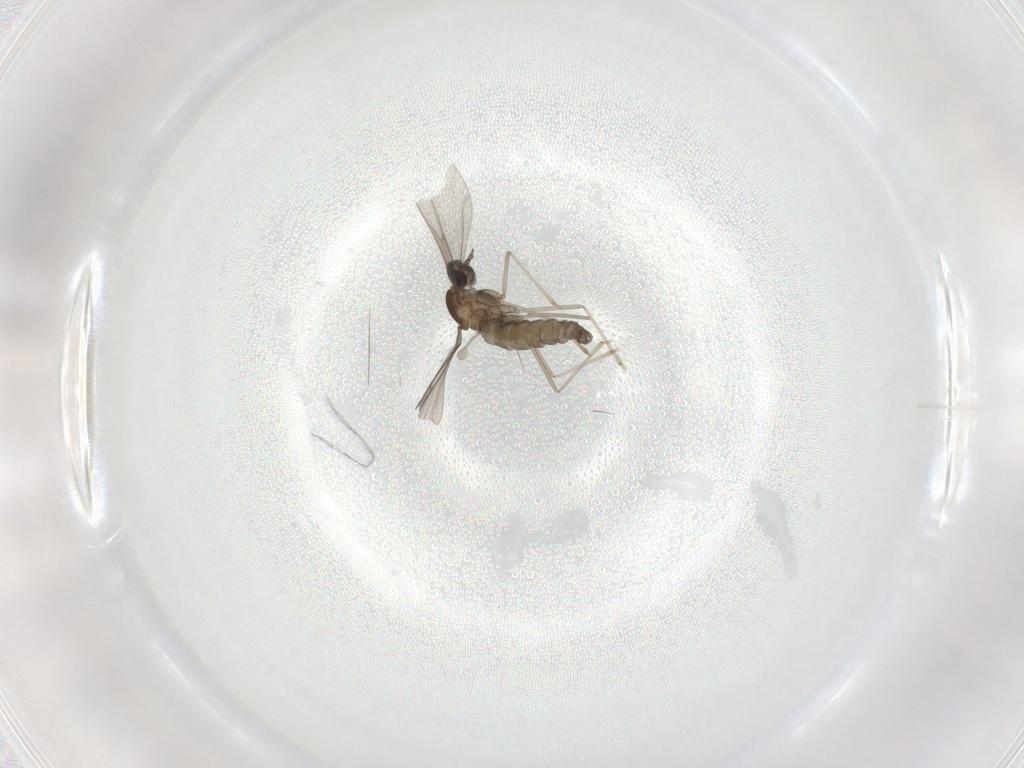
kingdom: Animalia
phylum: Arthropoda
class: Insecta
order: Diptera
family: Cecidomyiidae
